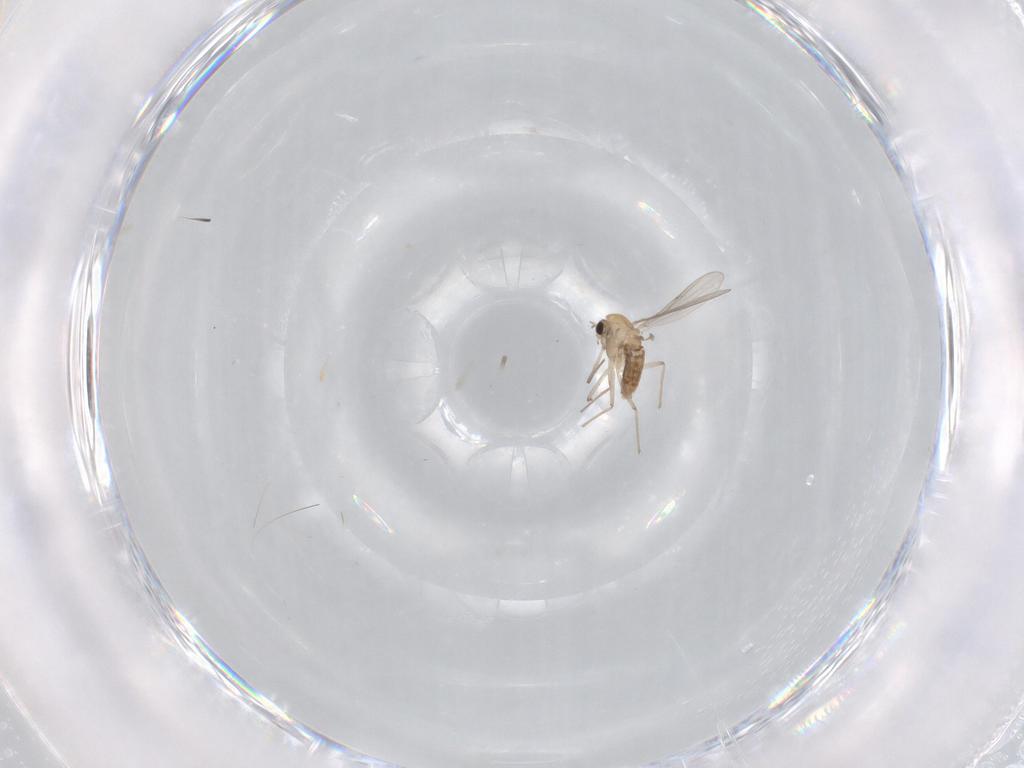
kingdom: Animalia
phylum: Arthropoda
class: Insecta
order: Diptera
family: Chironomidae
